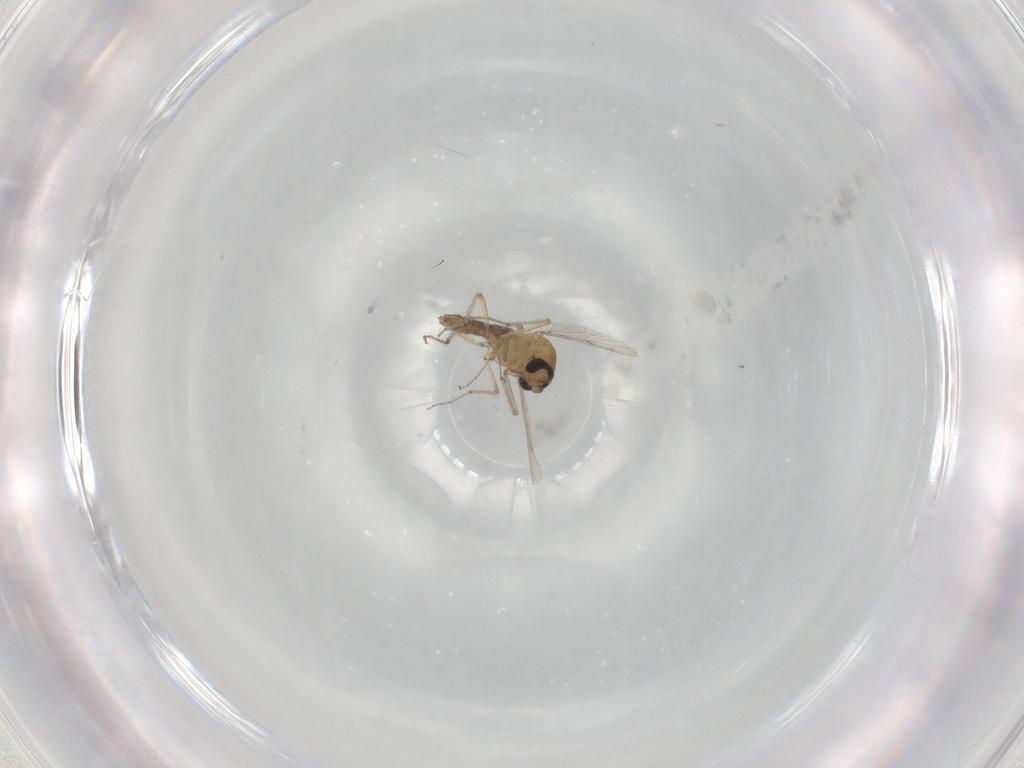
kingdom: Animalia
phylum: Arthropoda
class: Insecta
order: Diptera
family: Ceratopogonidae
